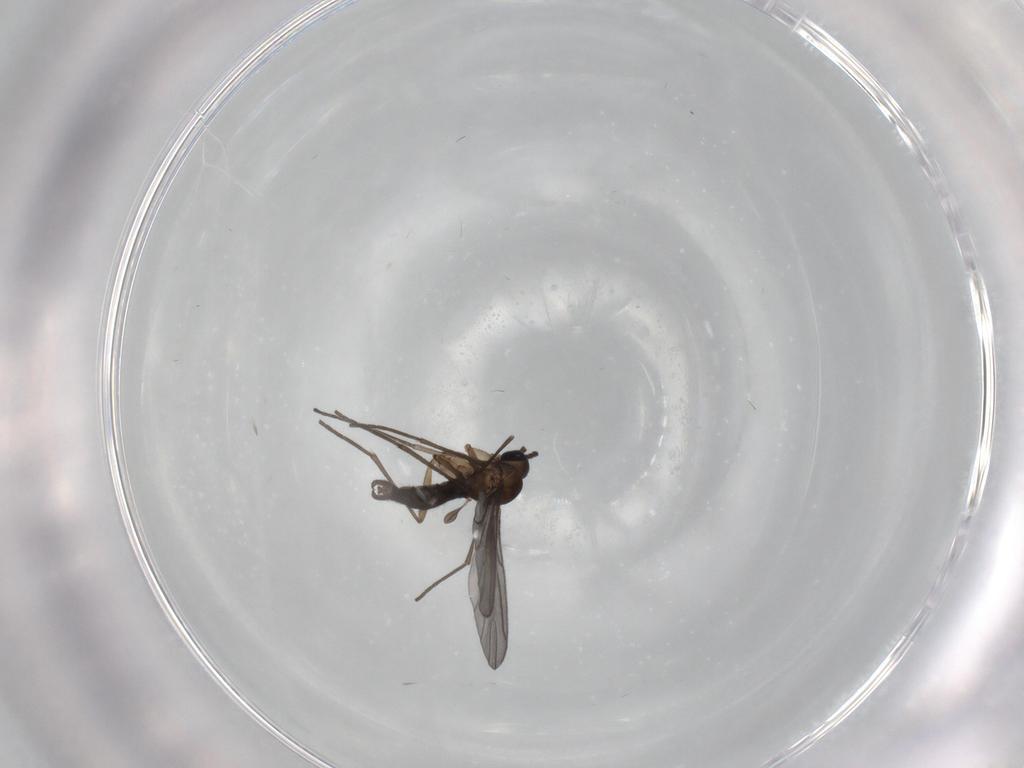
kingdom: Animalia
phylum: Arthropoda
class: Insecta
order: Diptera
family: Sciaridae
